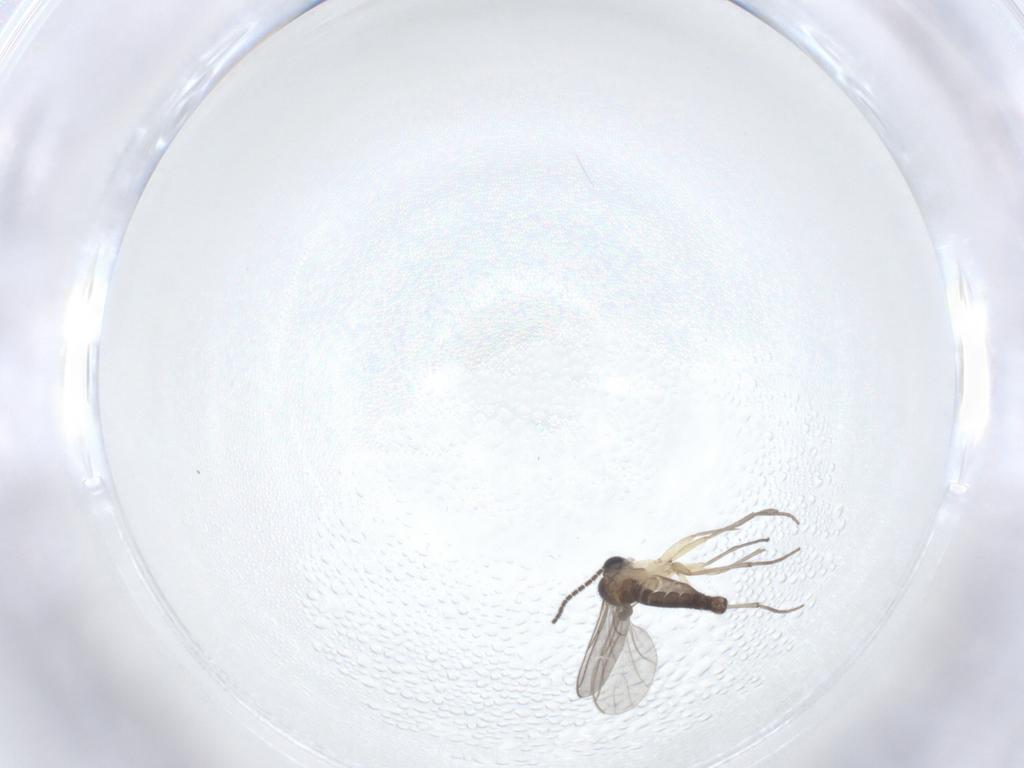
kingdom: Animalia
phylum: Arthropoda
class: Insecta
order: Diptera
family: Sciaridae
